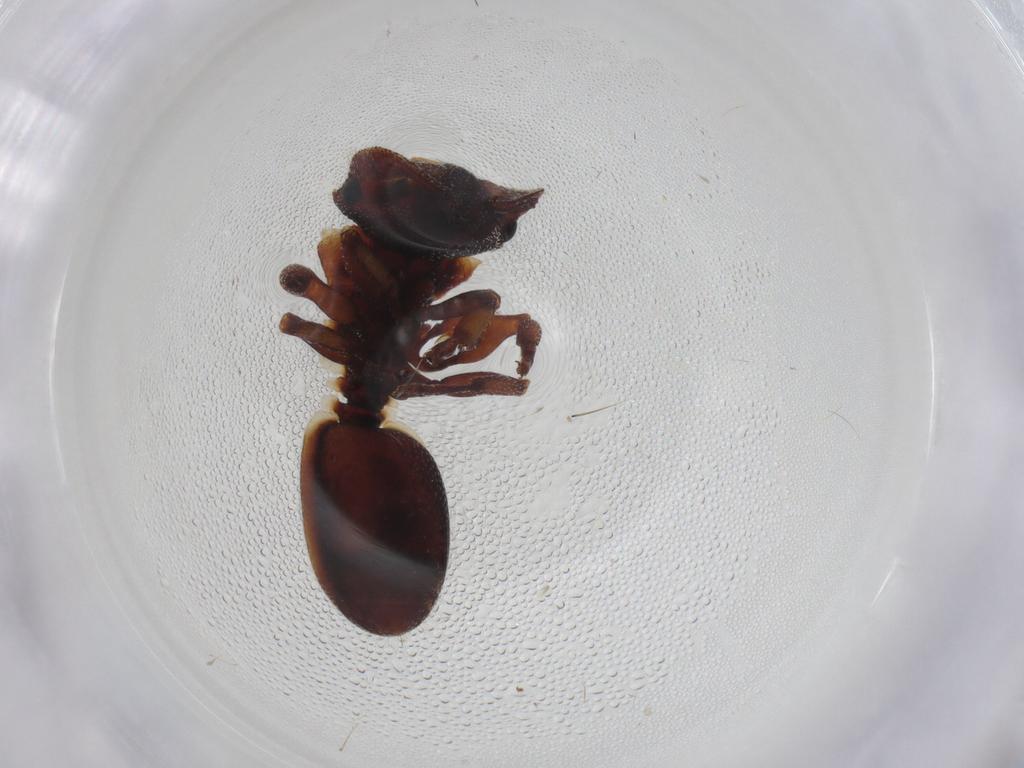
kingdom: Animalia
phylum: Arthropoda
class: Insecta
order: Hymenoptera
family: Formicidae
